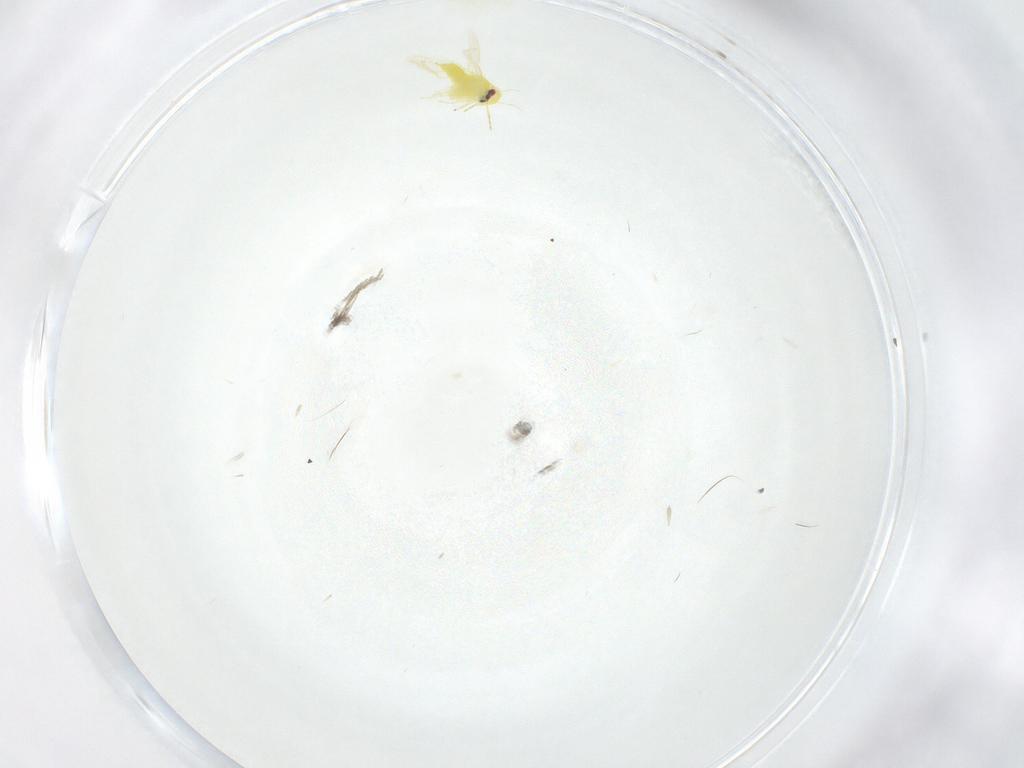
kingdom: Animalia
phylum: Arthropoda
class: Insecta
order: Hemiptera
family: Aleyrodidae
